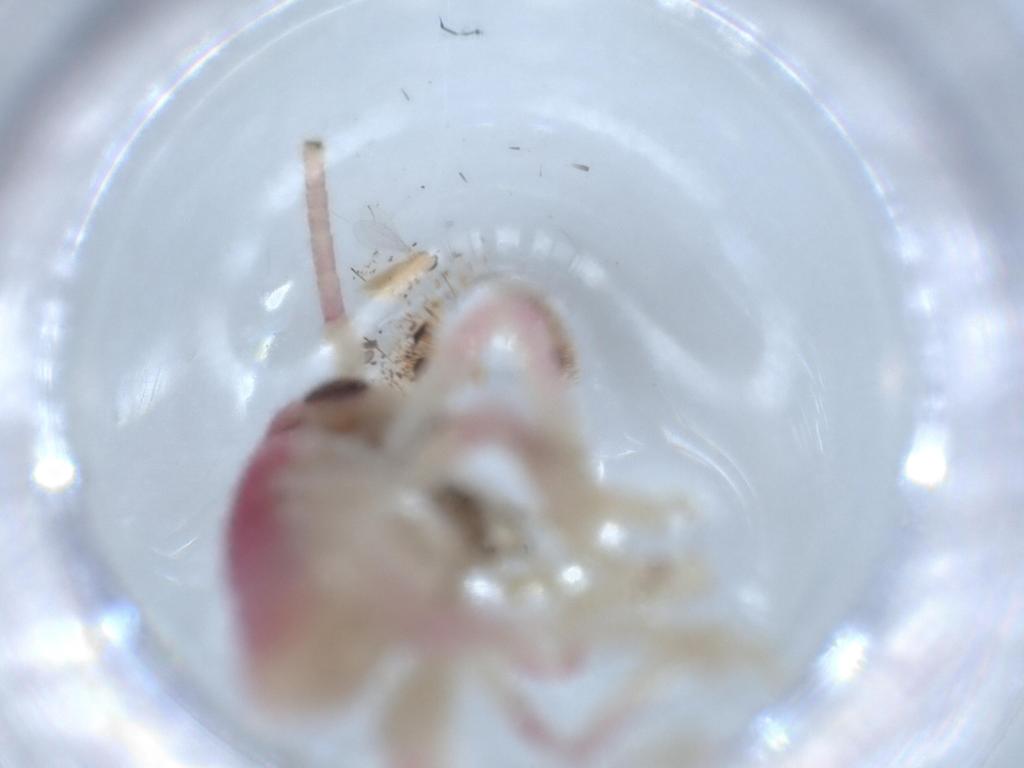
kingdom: Animalia
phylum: Arthropoda
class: Insecta
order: Diptera
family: Cecidomyiidae
